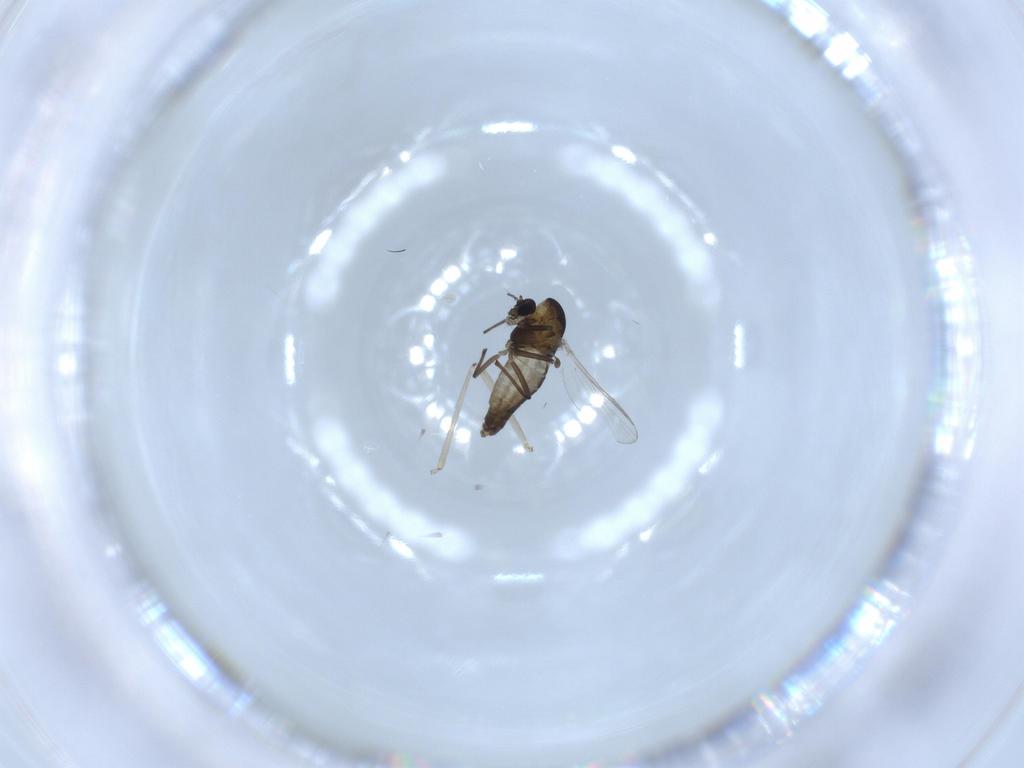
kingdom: Animalia
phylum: Arthropoda
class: Insecta
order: Diptera
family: Chironomidae
